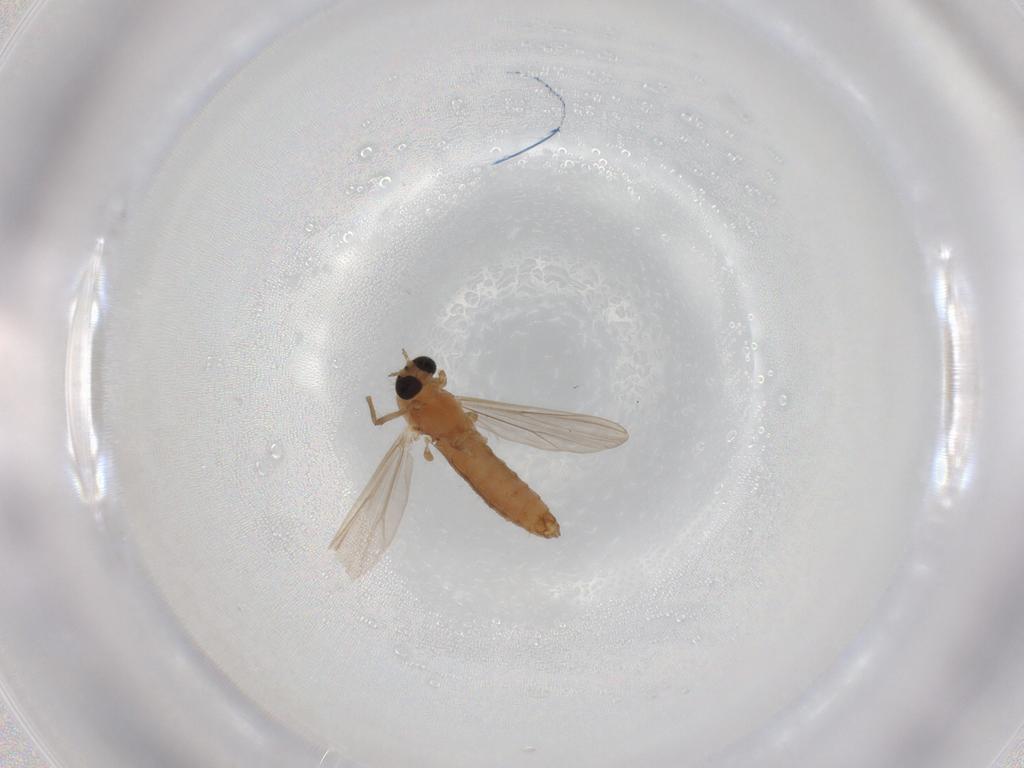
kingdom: Animalia
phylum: Arthropoda
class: Insecta
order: Diptera
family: Chironomidae
